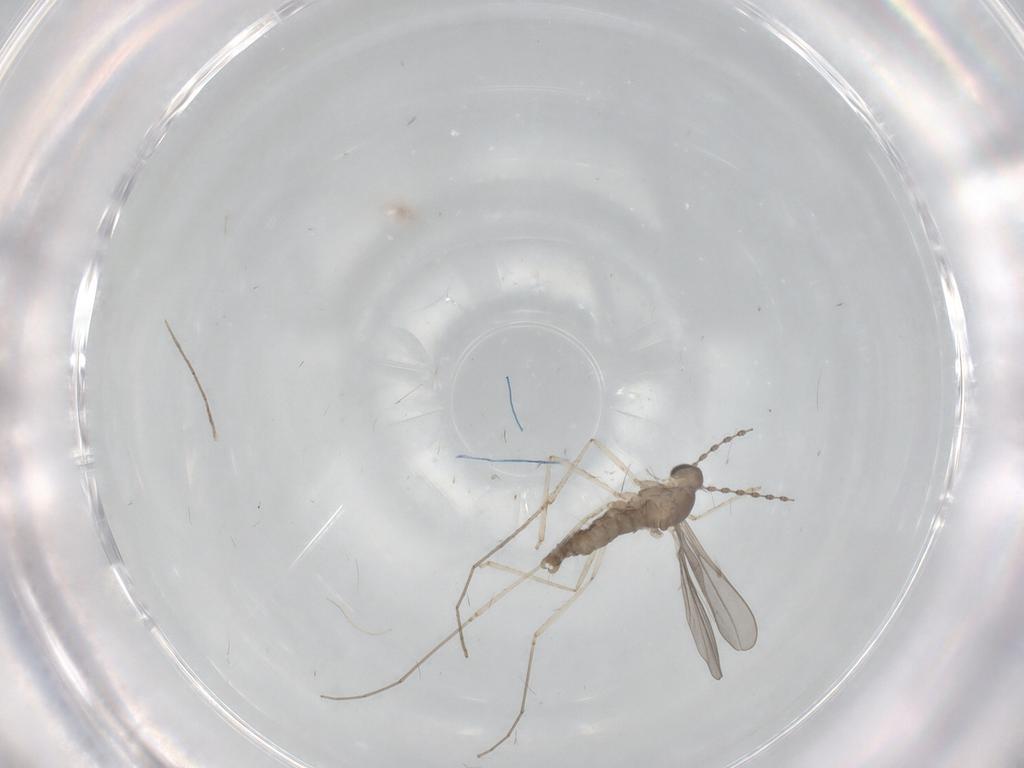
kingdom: Animalia
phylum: Arthropoda
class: Insecta
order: Diptera
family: Cecidomyiidae
